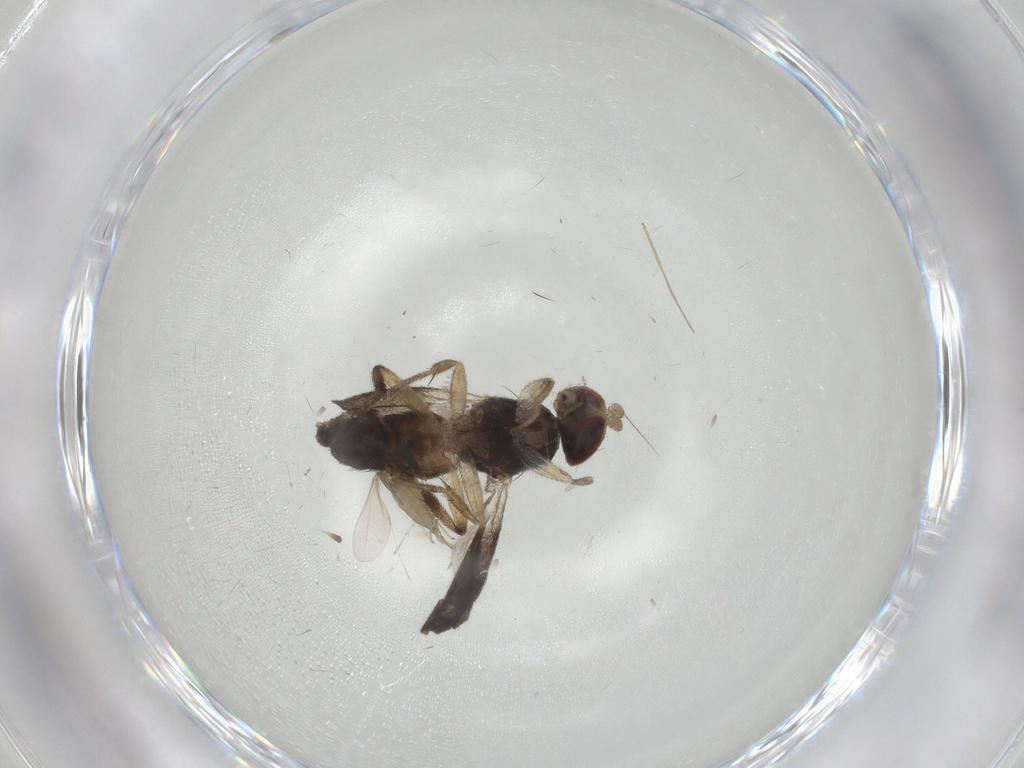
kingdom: Animalia
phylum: Arthropoda
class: Insecta
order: Diptera
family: Clusiidae
